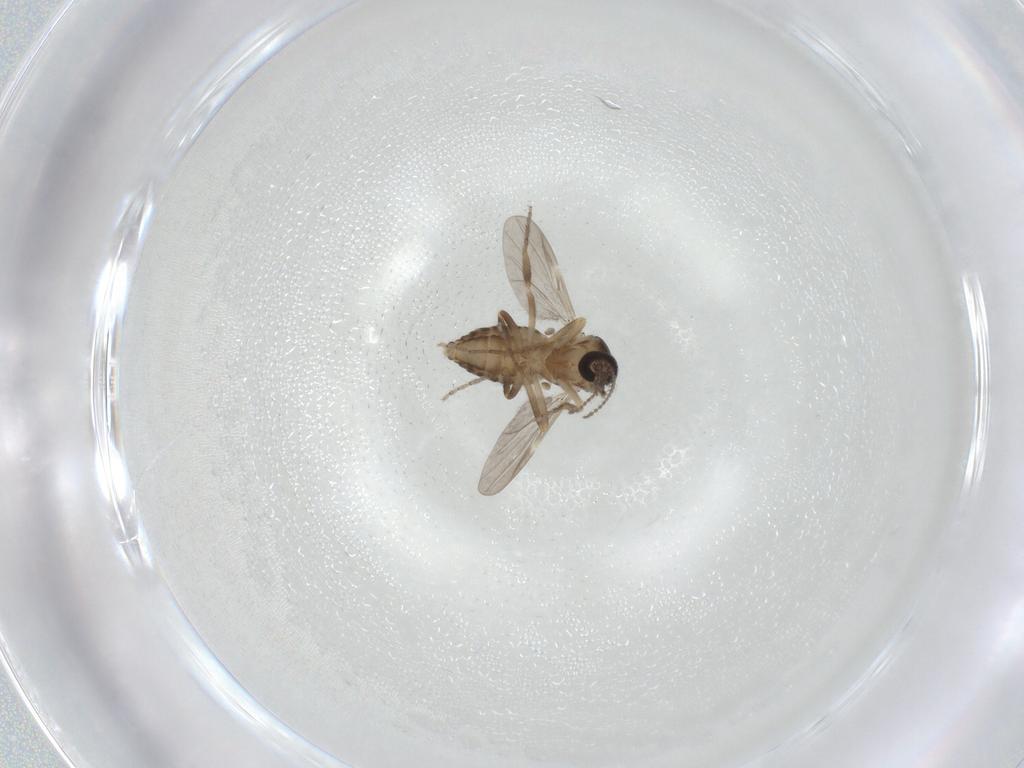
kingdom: Animalia
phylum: Arthropoda
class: Insecta
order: Diptera
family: Ceratopogonidae
